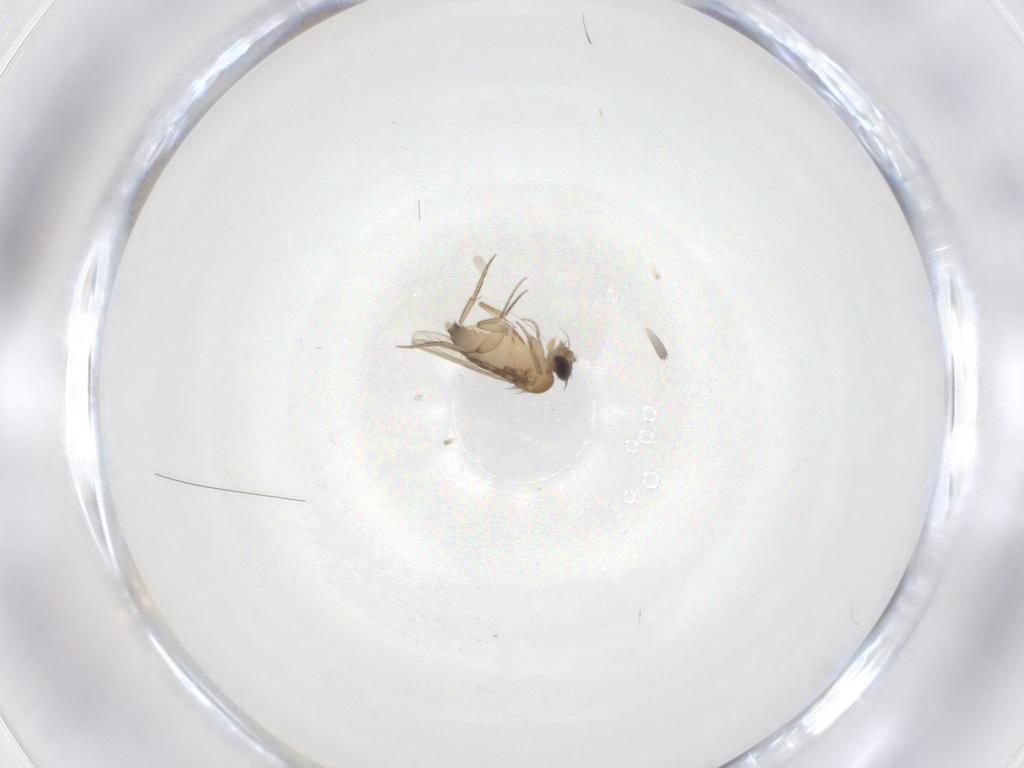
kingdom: Animalia
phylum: Arthropoda
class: Insecta
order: Diptera
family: Phoridae
